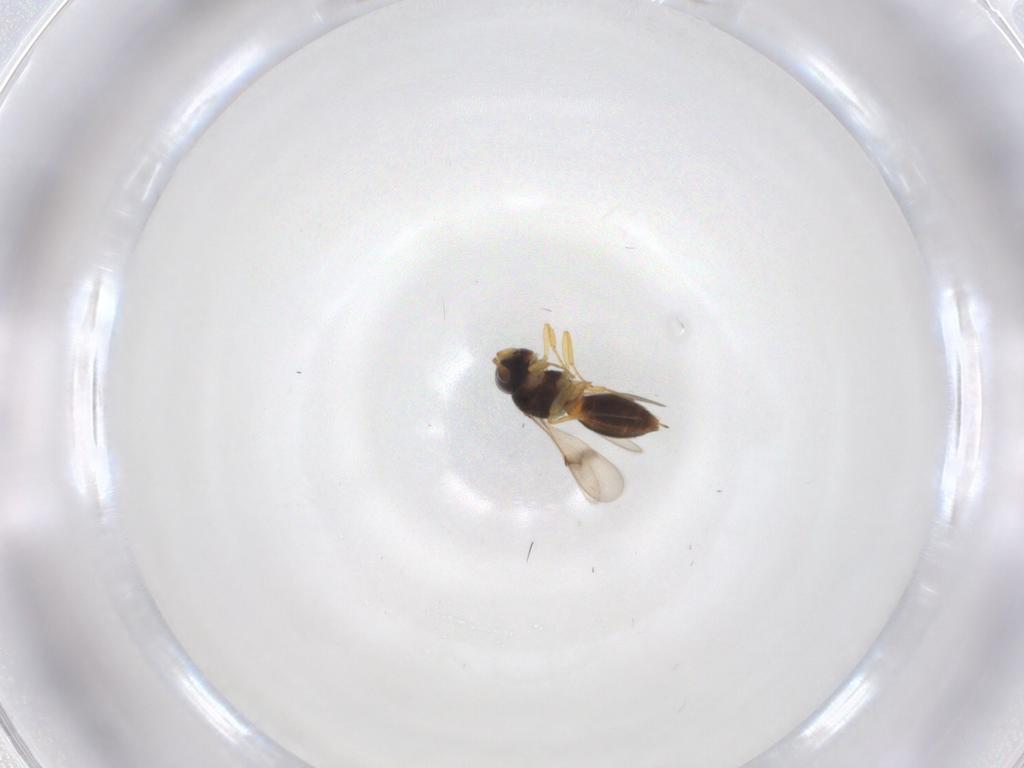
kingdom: Animalia
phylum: Arthropoda
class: Insecta
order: Hymenoptera
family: Scelionidae
